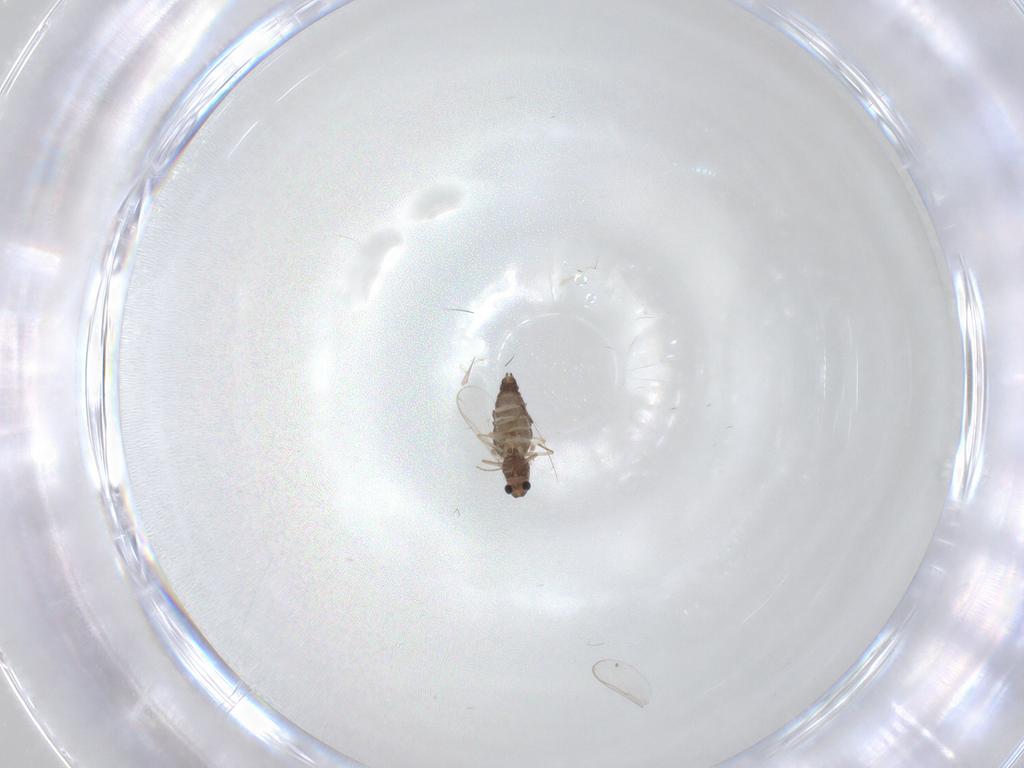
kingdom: Animalia
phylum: Arthropoda
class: Insecta
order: Diptera
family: Chironomidae
